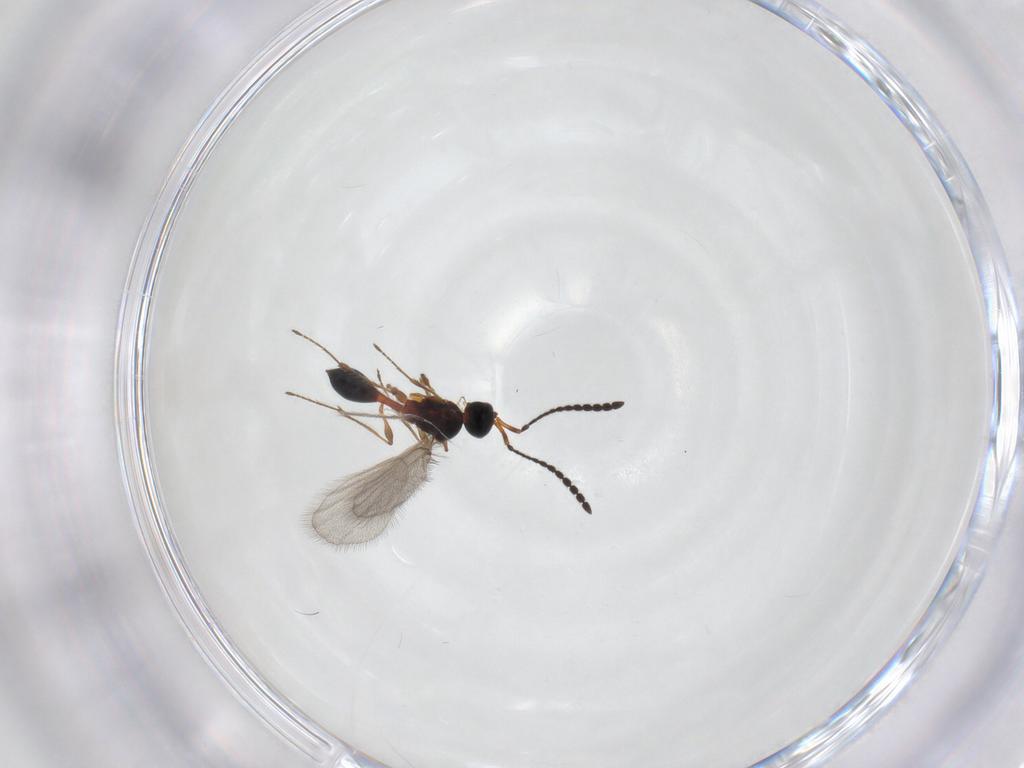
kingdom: Animalia
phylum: Arthropoda
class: Insecta
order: Hymenoptera
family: Diapriidae
